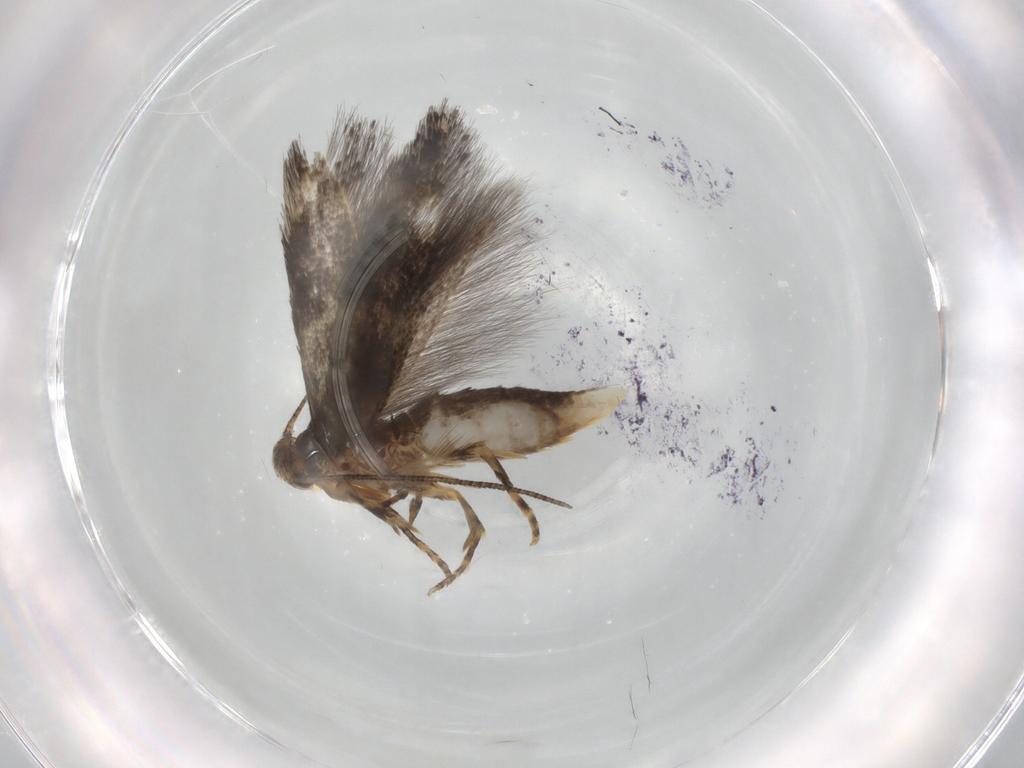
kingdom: Animalia
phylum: Arthropoda
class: Insecta
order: Lepidoptera
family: Elachistidae
